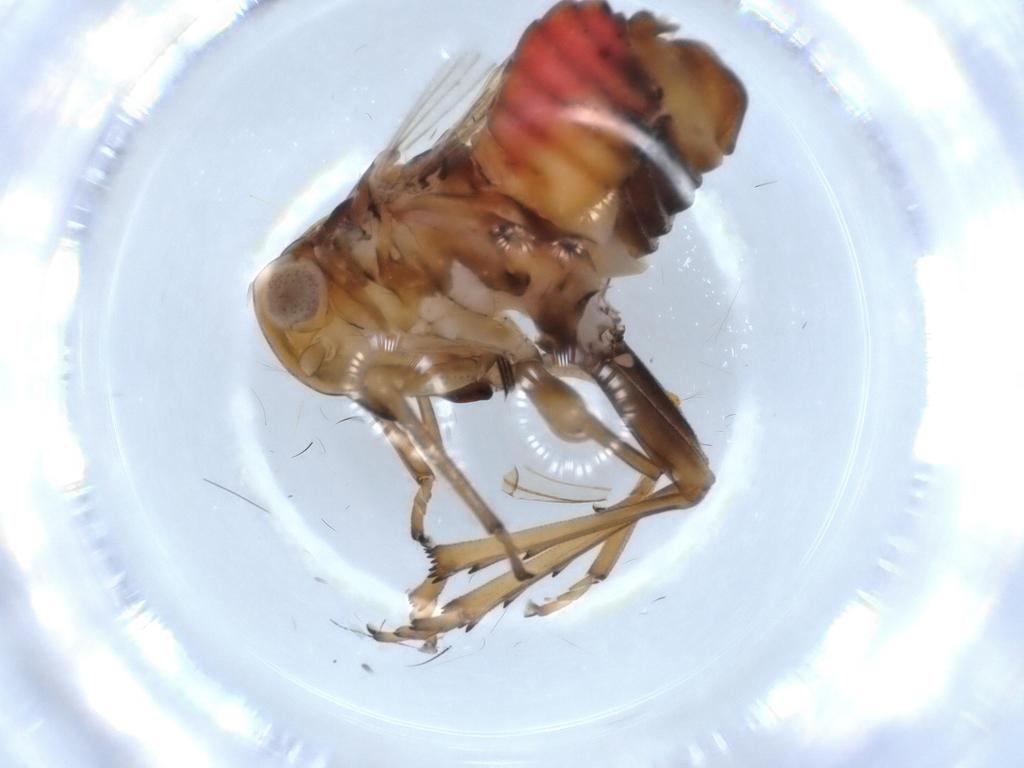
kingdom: Animalia
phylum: Arthropoda
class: Insecta
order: Hemiptera
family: Tropiduchidae
